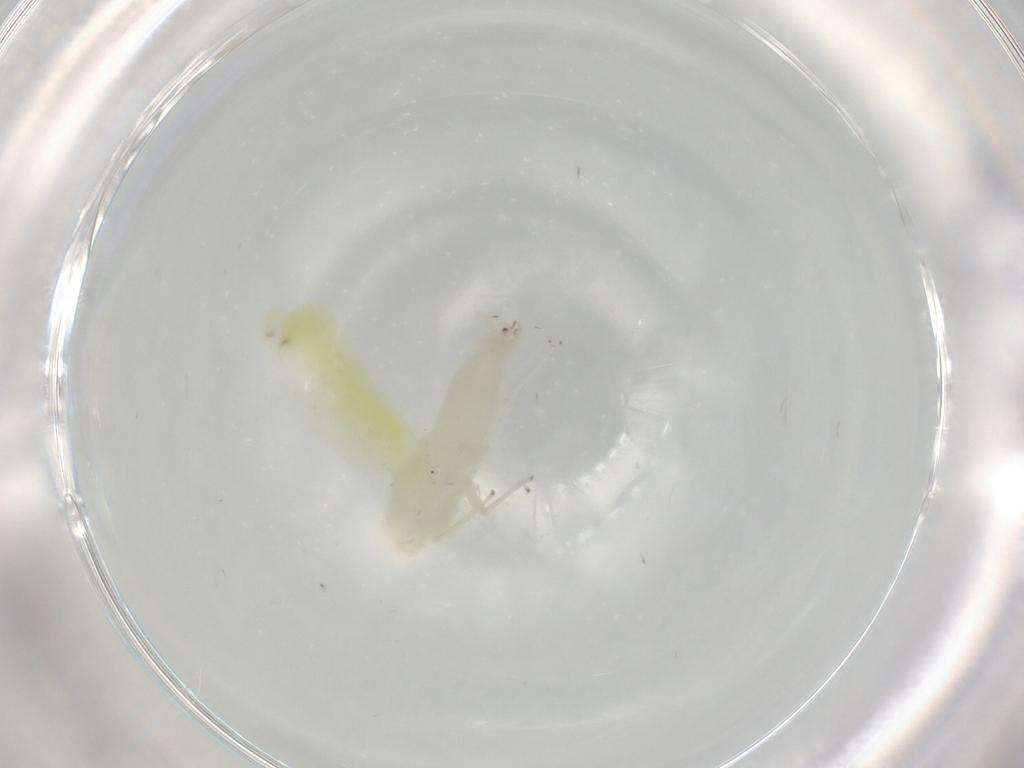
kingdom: Animalia
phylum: Arthropoda
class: Insecta
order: Hemiptera
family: Cicadellidae
